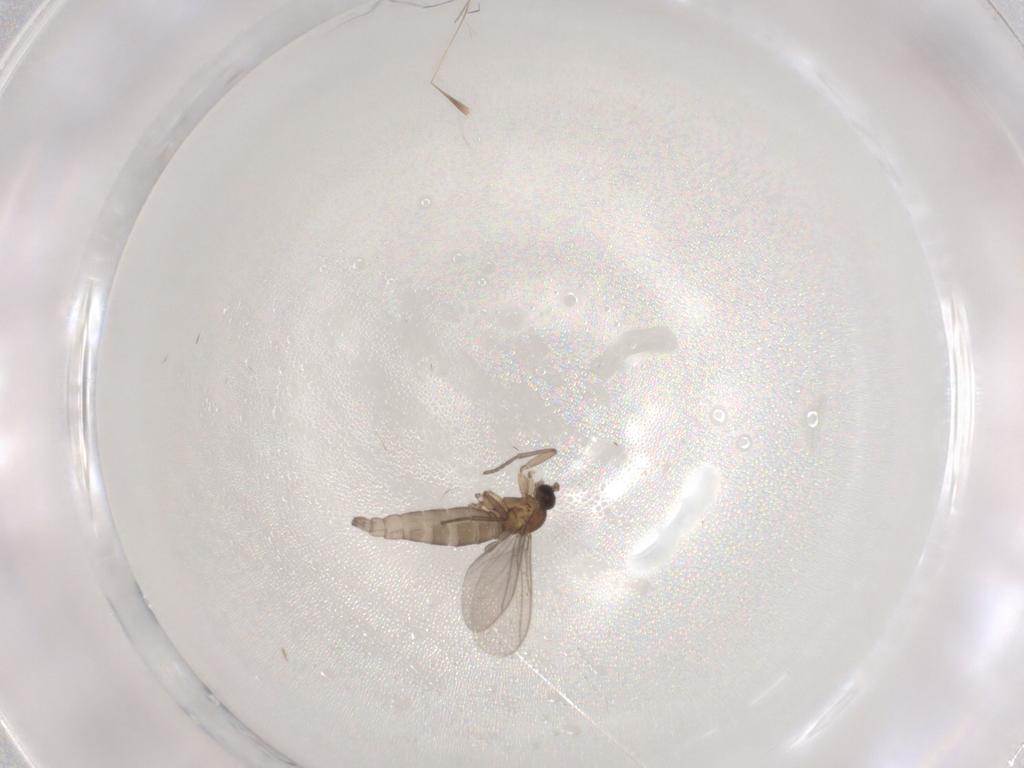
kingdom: Animalia
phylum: Arthropoda
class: Insecta
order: Diptera
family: Sciaridae
